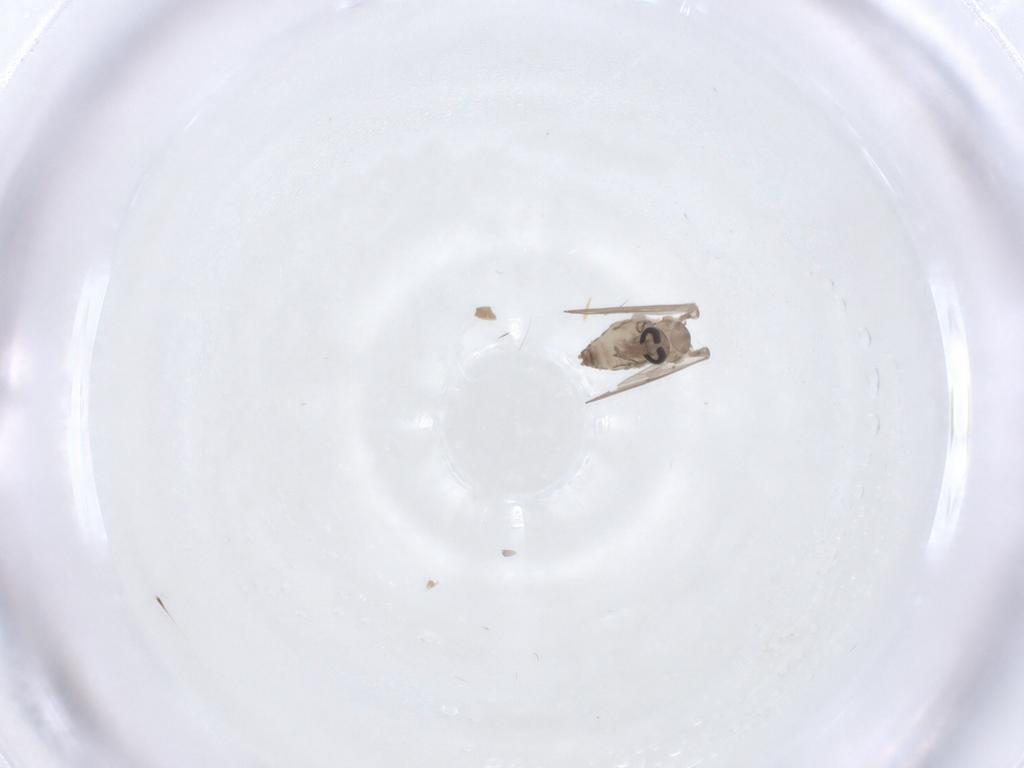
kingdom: Animalia
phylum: Arthropoda
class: Insecta
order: Diptera
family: Psychodidae
